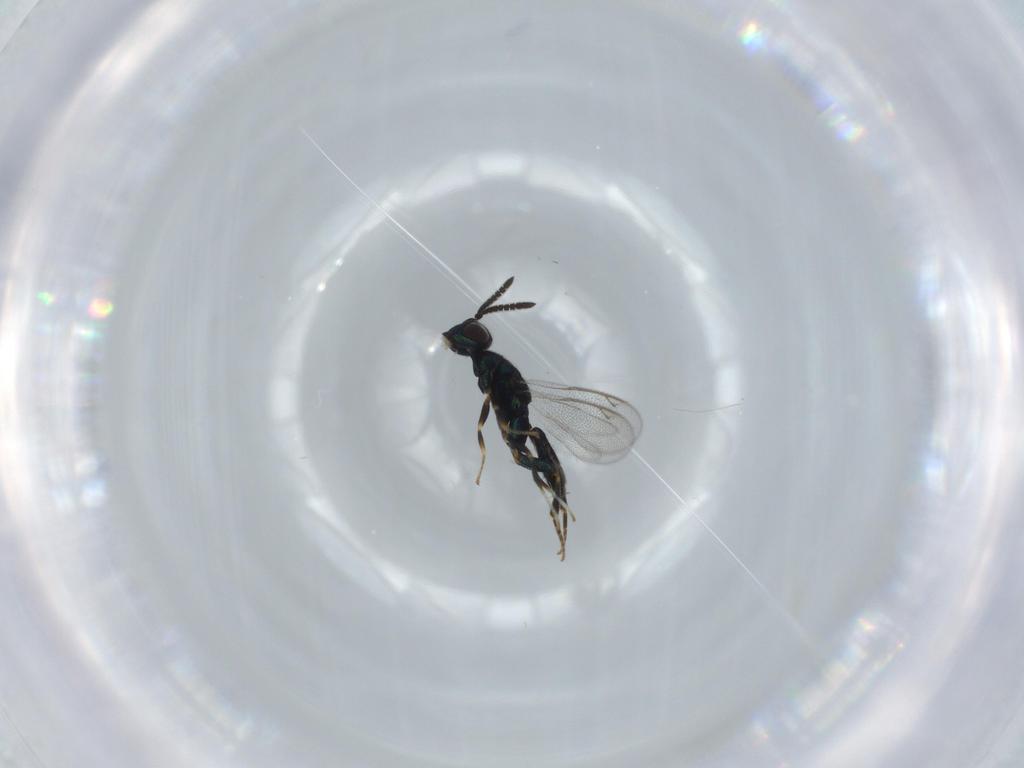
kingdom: Animalia
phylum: Arthropoda
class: Insecta
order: Hymenoptera
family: Cleonyminae
